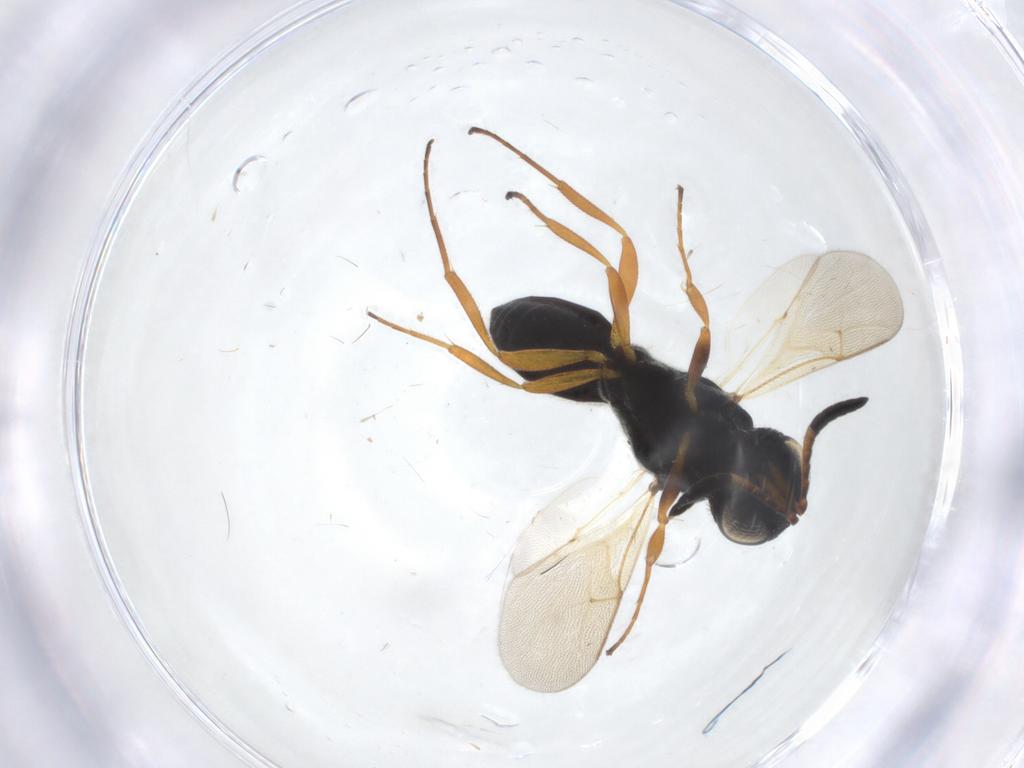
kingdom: Animalia
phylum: Arthropoda
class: Insecta
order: Hymenoptera
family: Scelionidae
